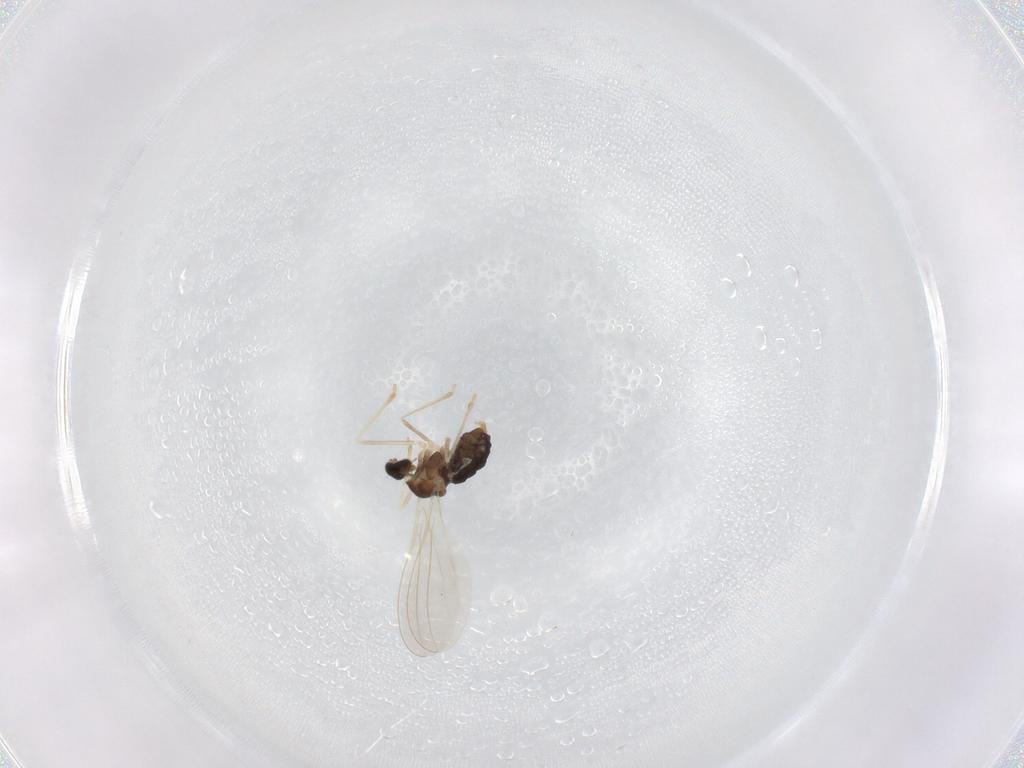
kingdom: Animalia
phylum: Arthropoda
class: Insecta
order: Diptera
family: Cecidomyiidae
